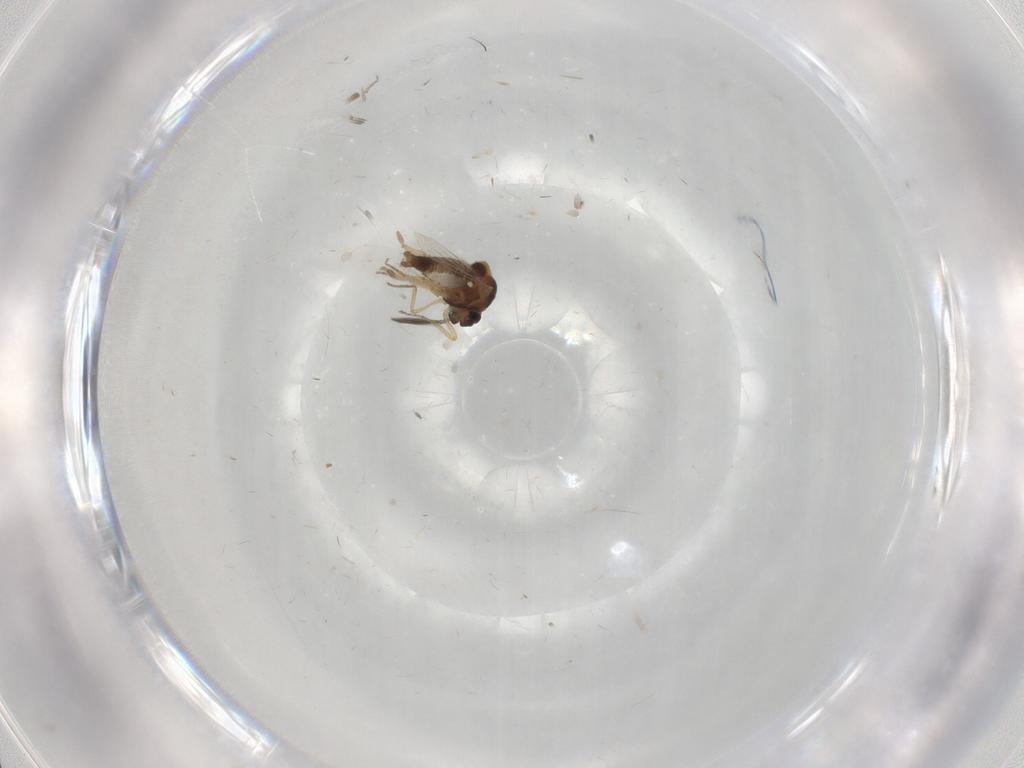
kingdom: Animalia
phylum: Arthropoda
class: Insecta
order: Diptera
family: Ceratopogonidae
